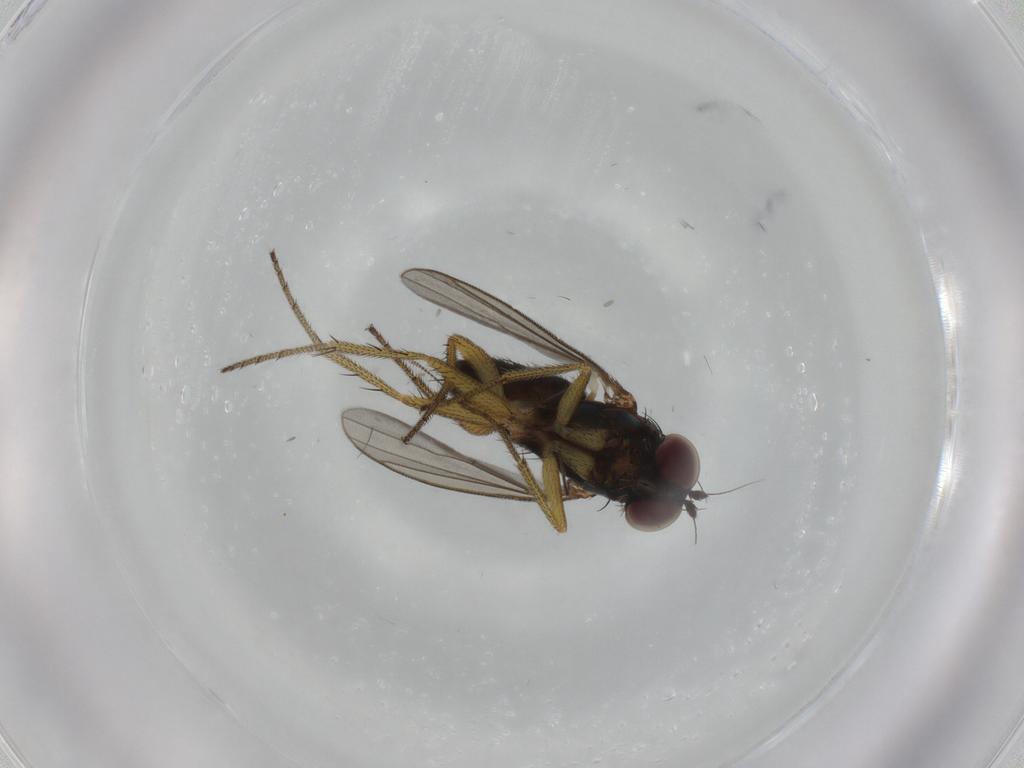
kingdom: Animalia
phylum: Arthropoda
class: Insecta
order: Diptera
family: Dolichopodidae
